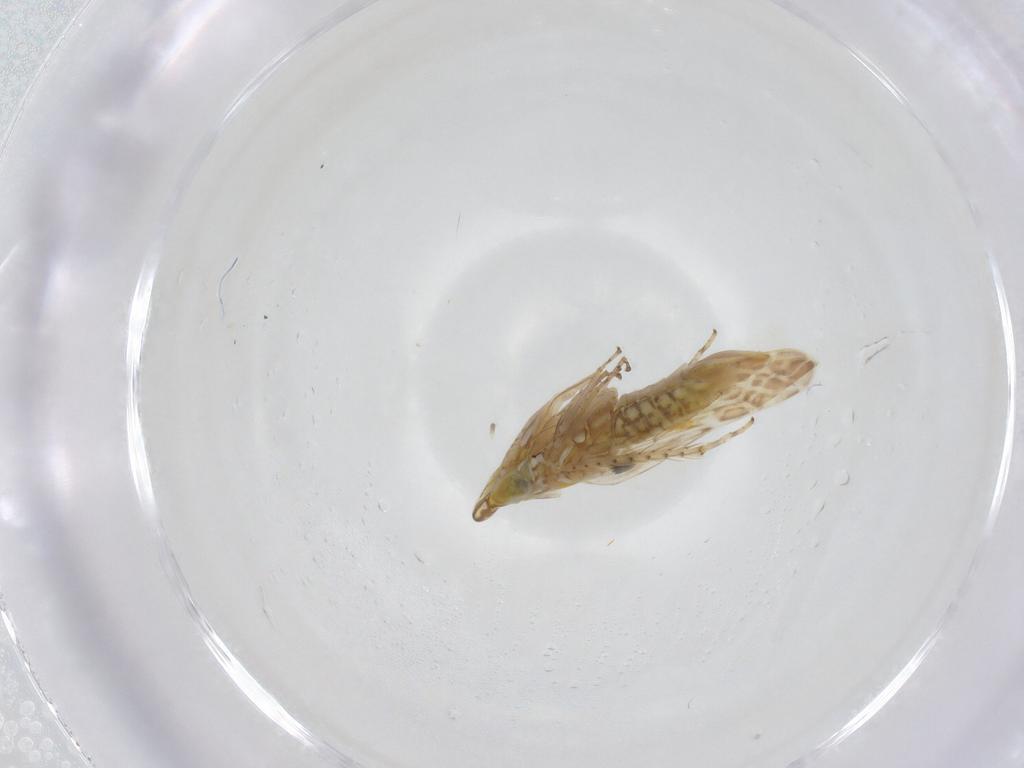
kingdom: Animalia
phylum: Arthropoda
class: Insecta
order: Hemiptera
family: Cicadellidae
